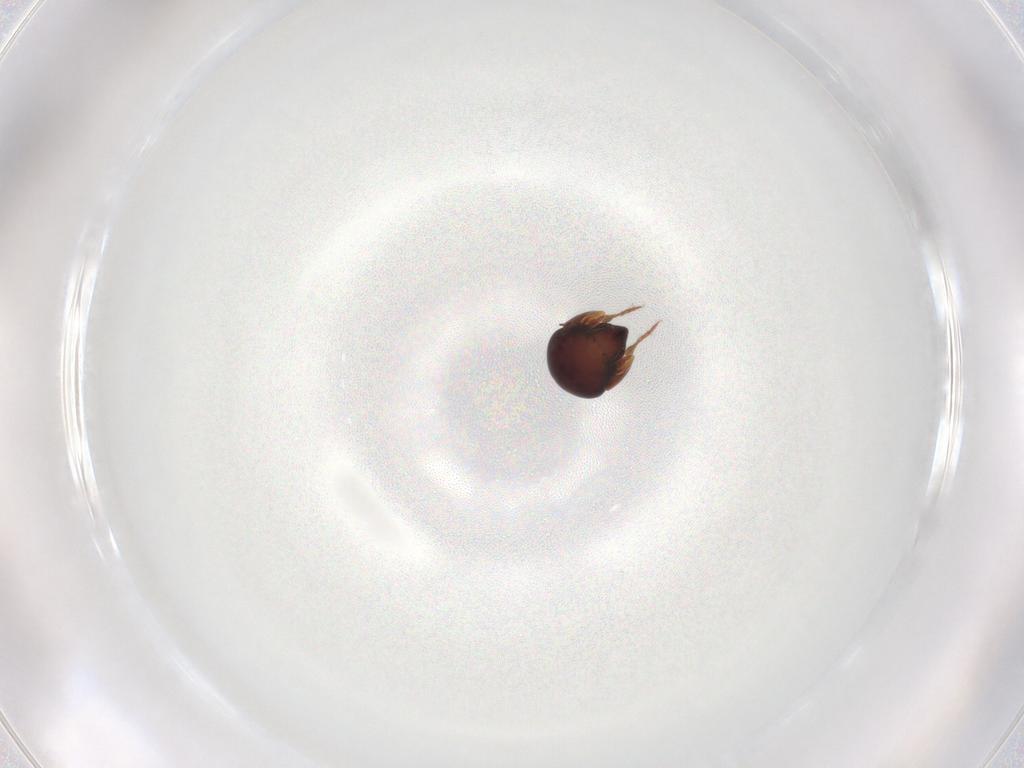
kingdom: Animalia
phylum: Arthropoda
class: Arachnida
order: Sarcoptiformes
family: Galumnidae
